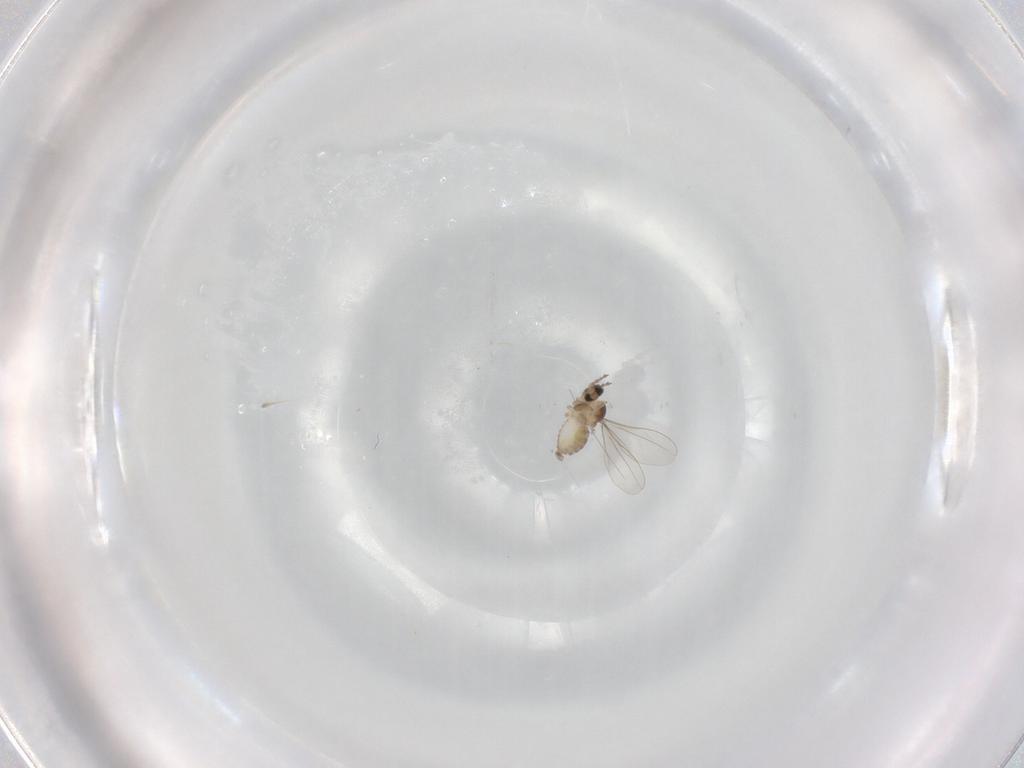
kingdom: Animalia
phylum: Arthropoda
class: Insecta
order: Diptera
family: Cecidomyiidae
